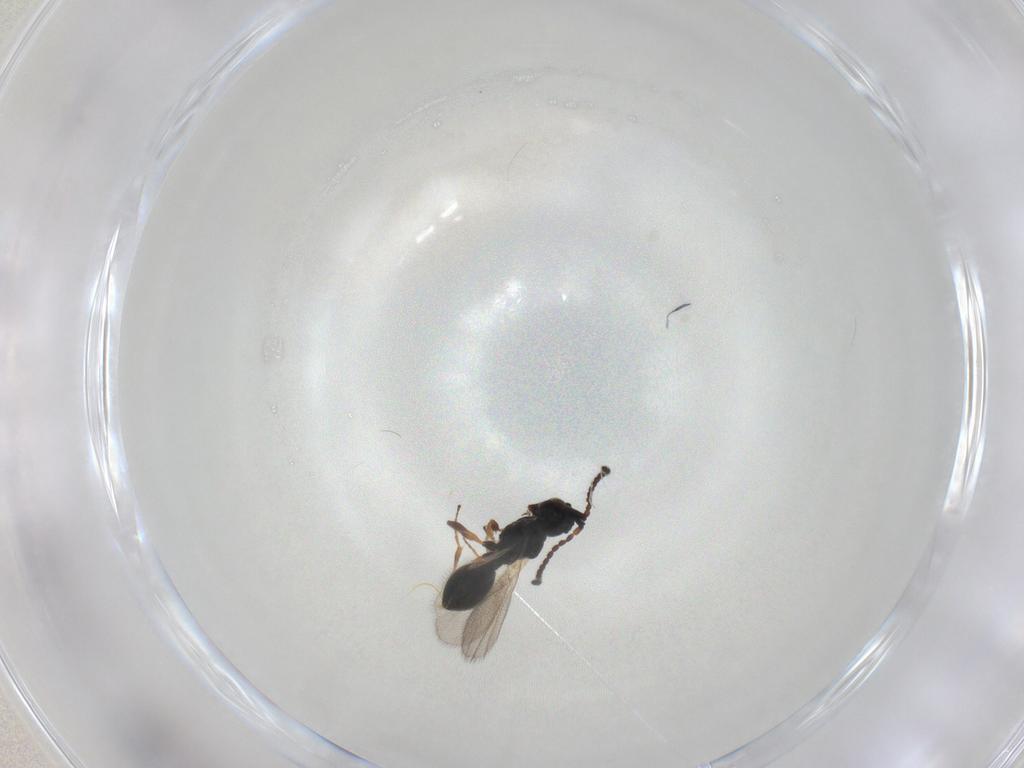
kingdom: Animalia
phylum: Arthropoda
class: Insecta
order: Hymenoptera
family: Diapriidae
